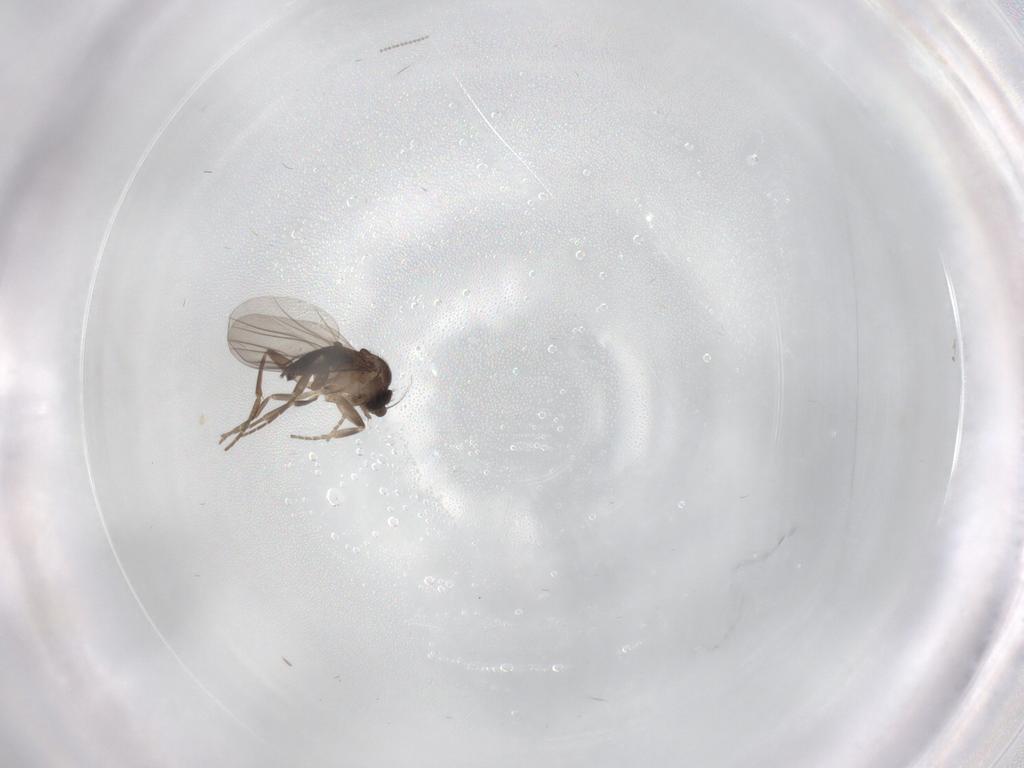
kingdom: Animalia
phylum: Arthropoda
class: Insecta
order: Diptera
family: Cecidomyiidae
